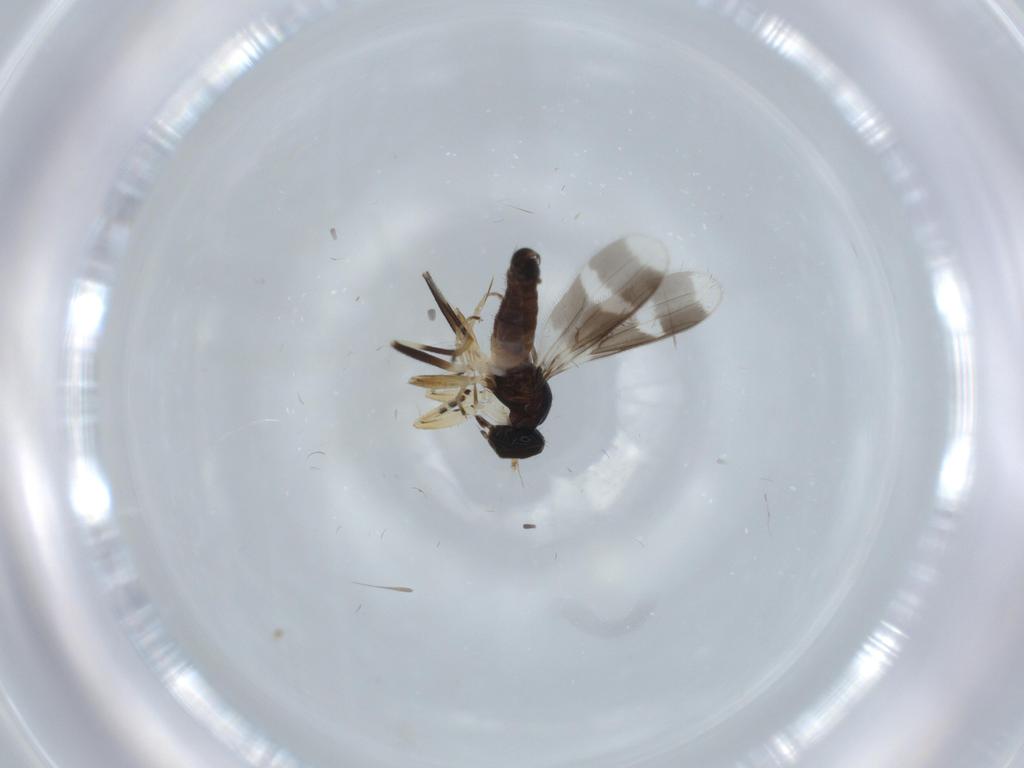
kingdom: Animalia
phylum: Arthropoda
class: Insecta
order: Diptera
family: Hybotidae
